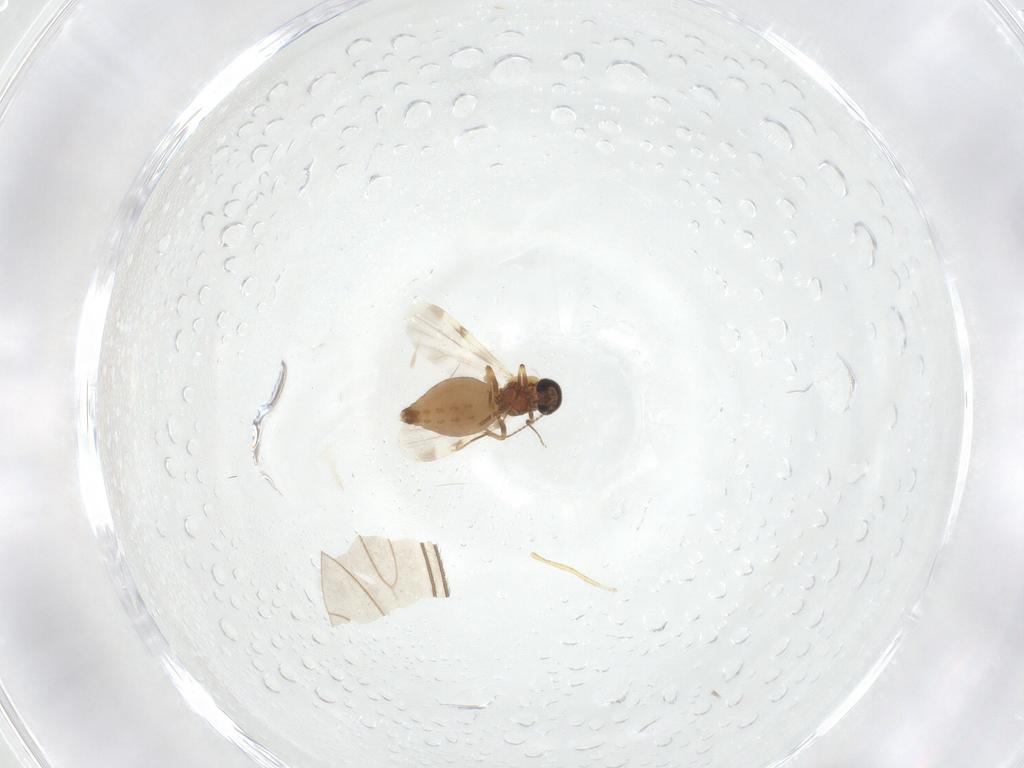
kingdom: Animalia
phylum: Arthropoda
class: Insecta
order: Diptera
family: Ceratopogonidae
